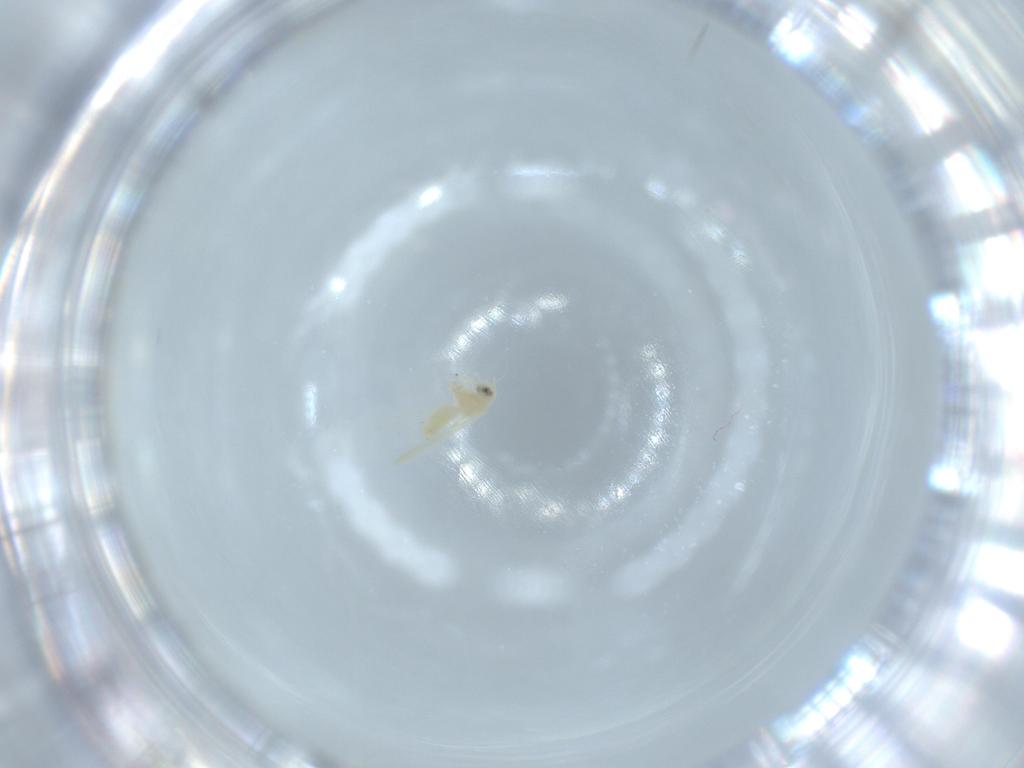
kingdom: Animalia
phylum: Arthropoda
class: Insecta
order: Hemiptera
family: Aleyrodidae
